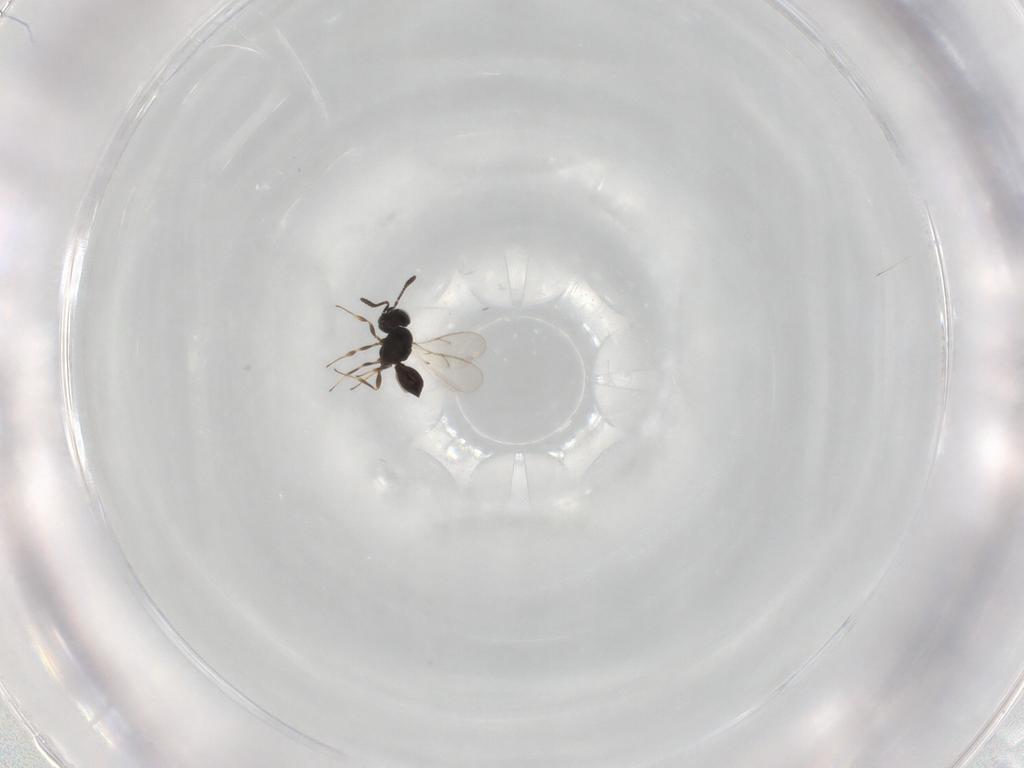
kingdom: Animalia
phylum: Arthropoda
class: Insecta
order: Hymenoptera
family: Scelionidae
